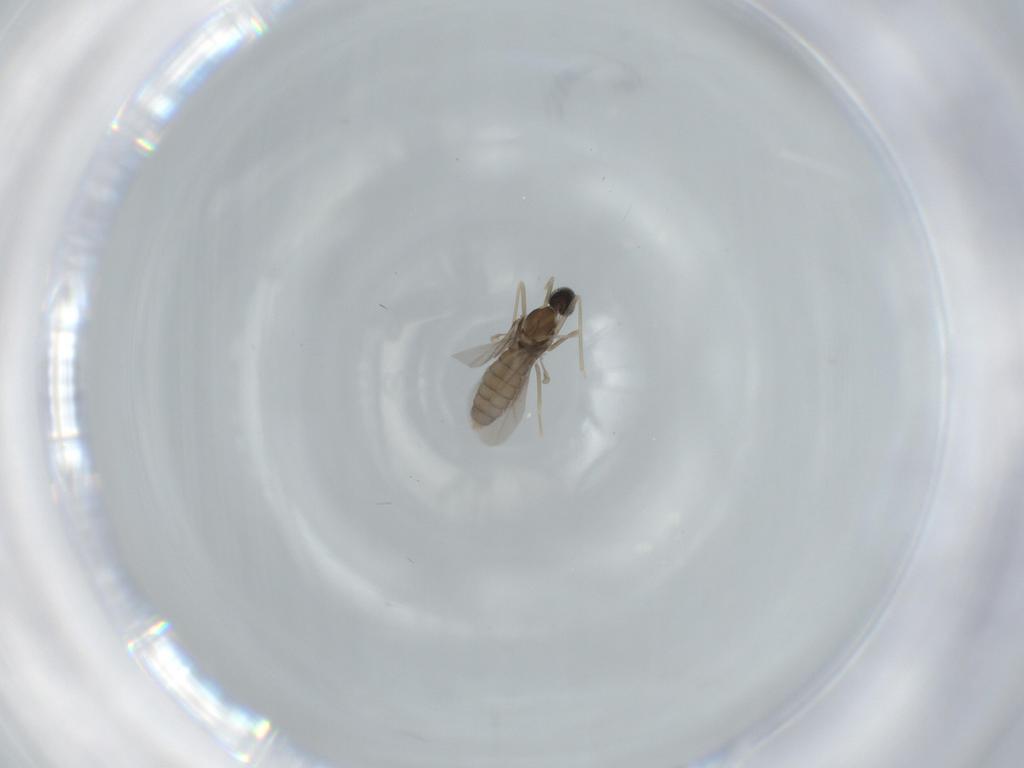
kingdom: Animalia
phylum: Arthropoda
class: Insecta
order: Diptera
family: Cecidomyiidae
